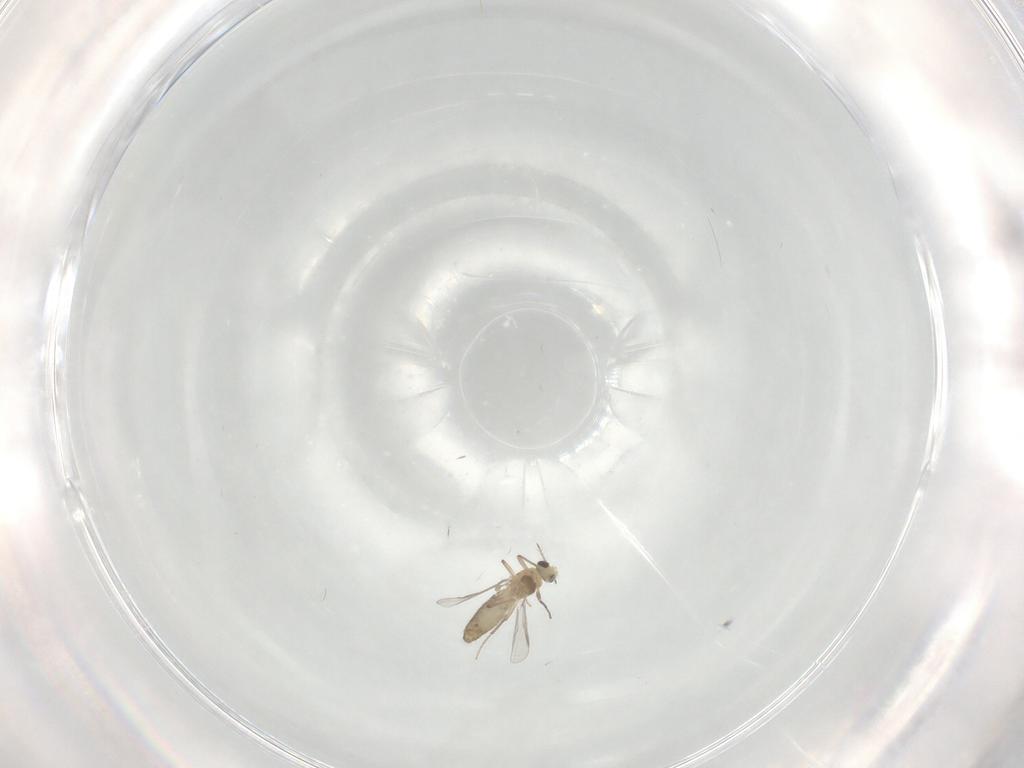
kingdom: Animalia
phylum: Arthropoda
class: Insecta
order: Diptera
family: Chironomidae
